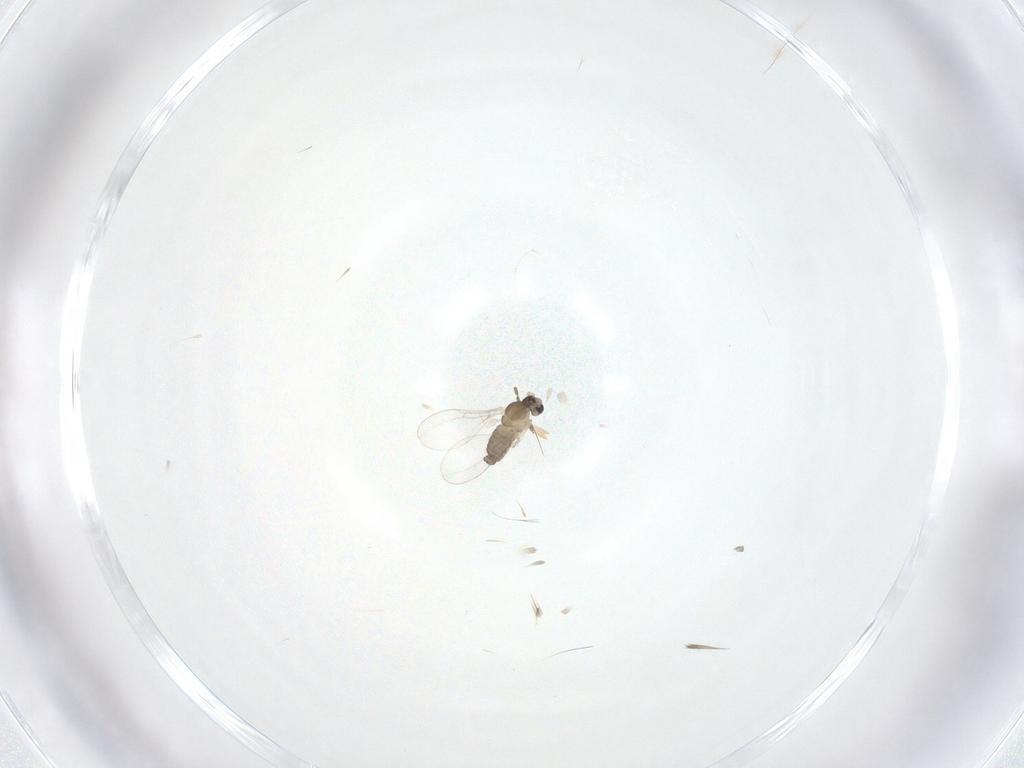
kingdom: Animalia
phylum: Arthropoda
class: Insecta
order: Diptera
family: Cecidomyiidae
